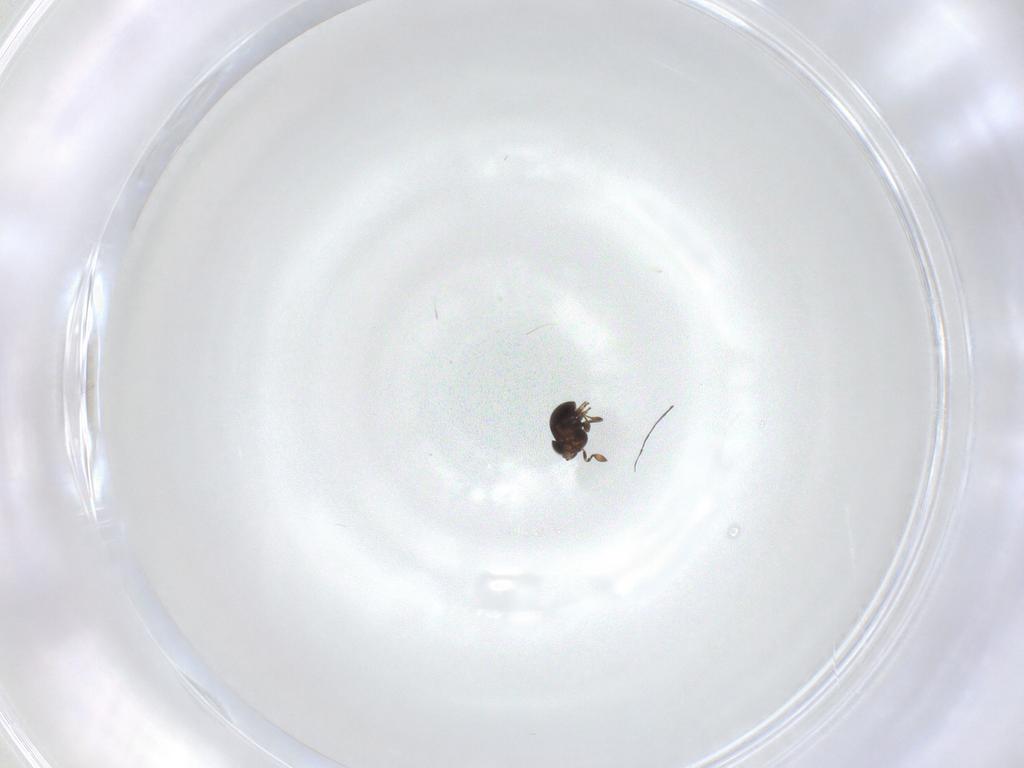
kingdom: Animalia
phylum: Arthropoda
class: Insecta
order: Hymenoptera
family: Scelionidae
